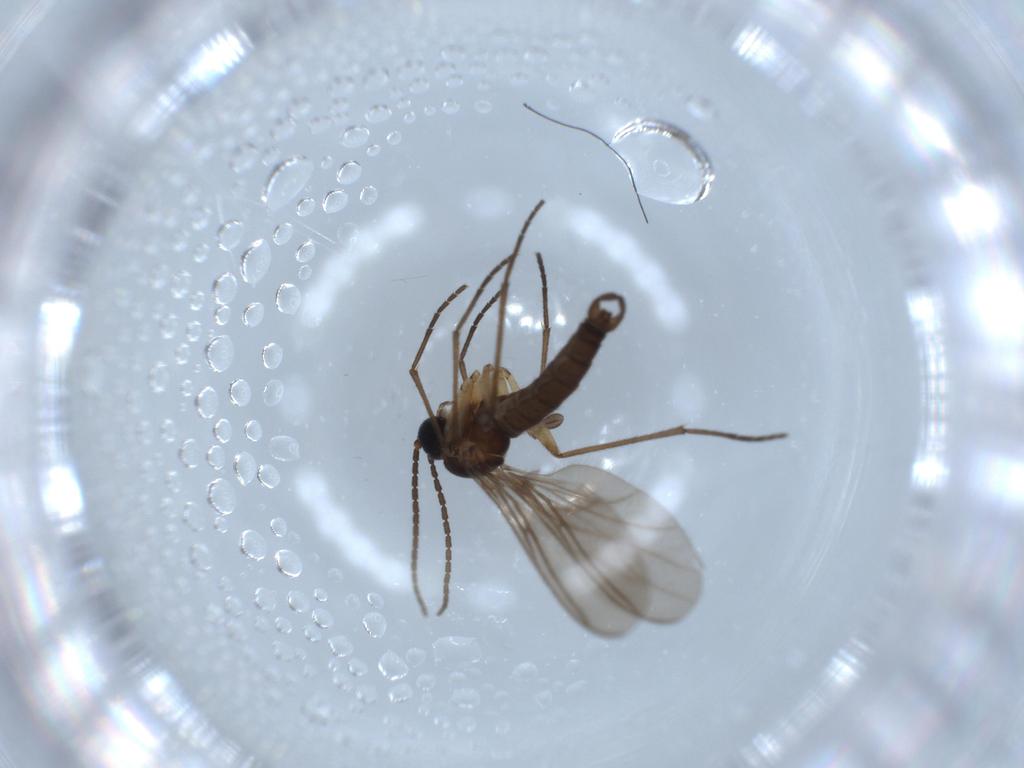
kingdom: Animalia
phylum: Arthropoda
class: Insecta
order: Diptera
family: Sciaridae
